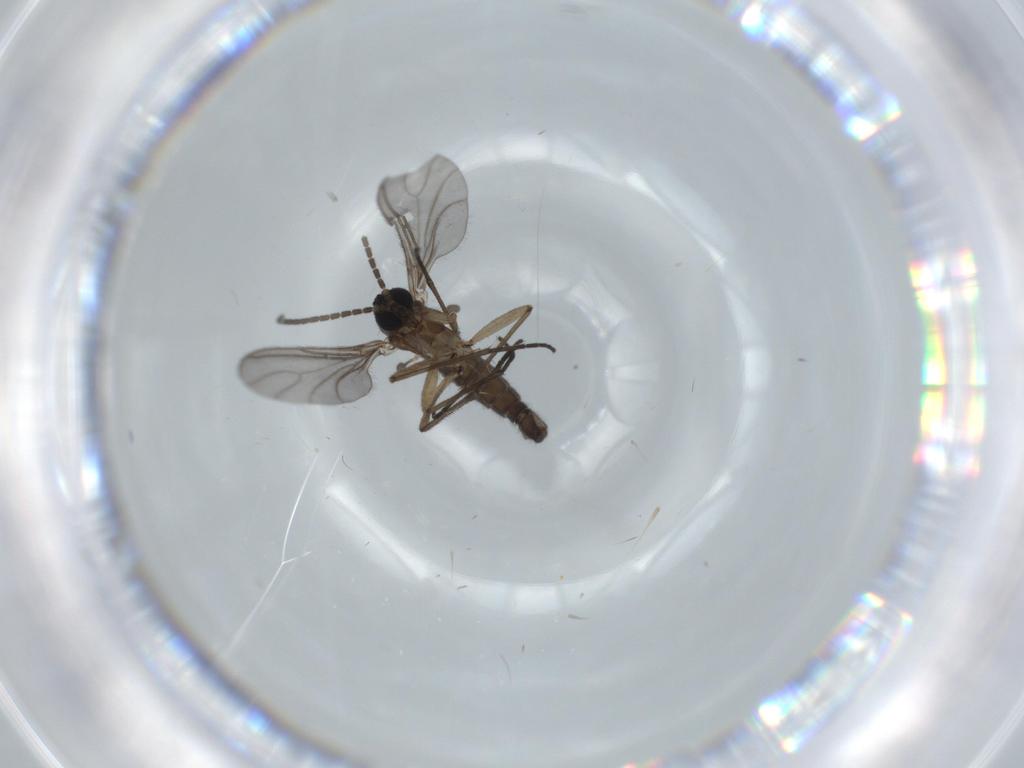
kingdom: Animalia
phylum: Arthropoda
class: Insecta
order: Diptera
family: Sciaridae
